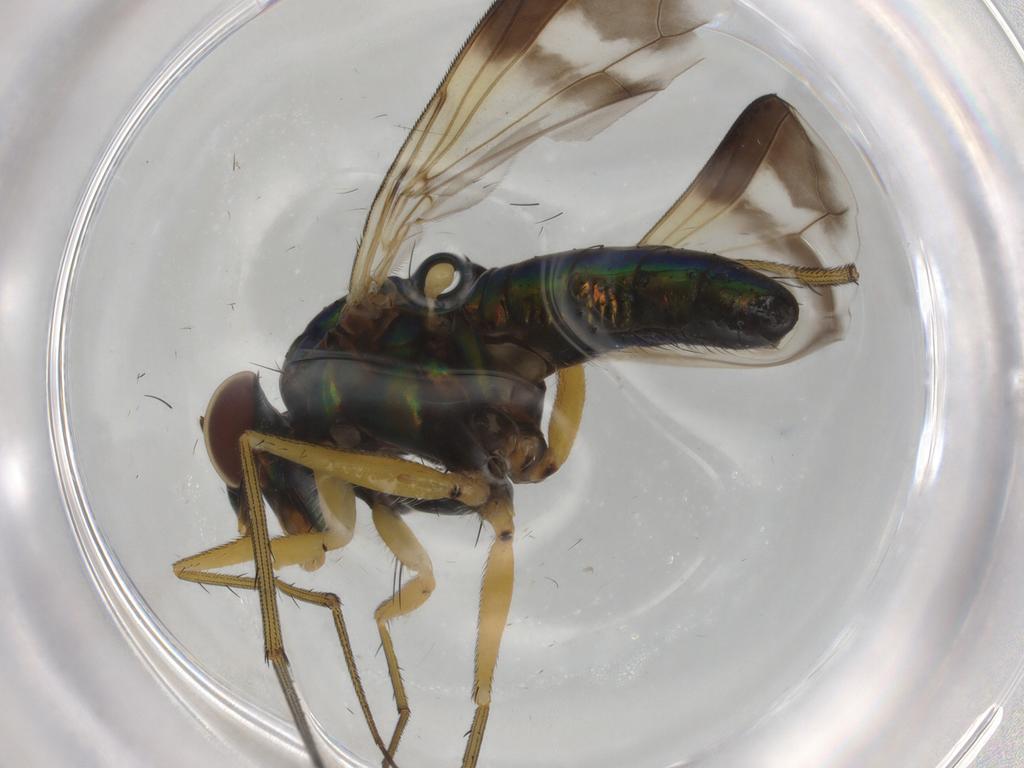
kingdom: Animalia
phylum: Arthropoda
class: Insecta
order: Diptera
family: Dolichopodidae
